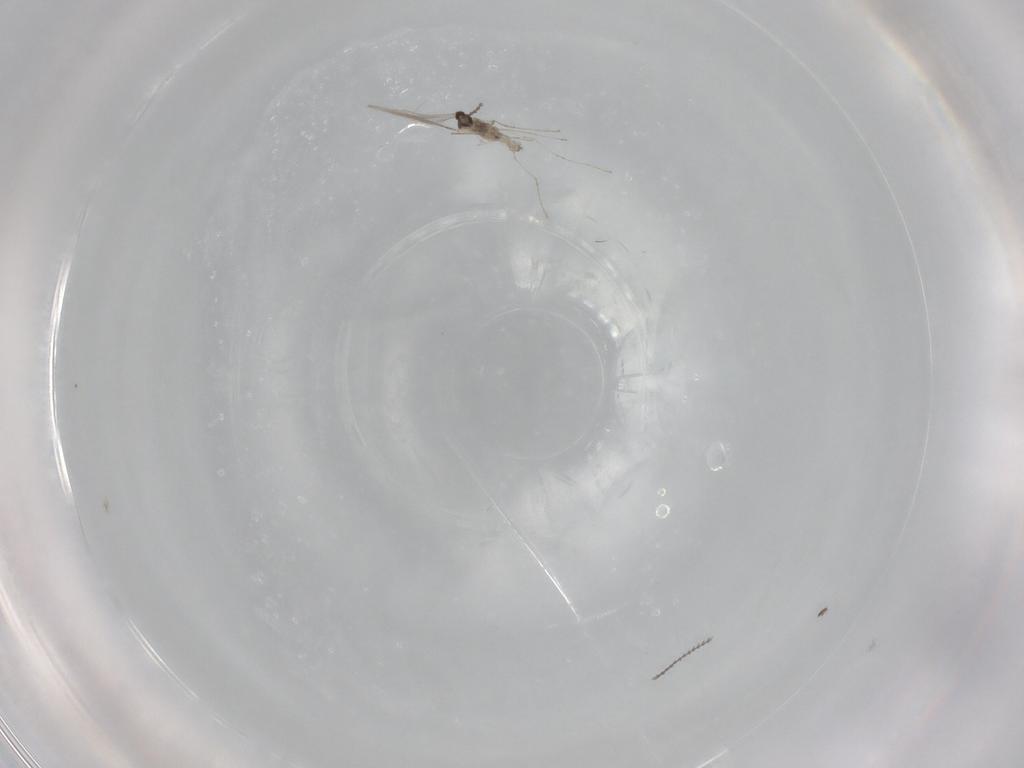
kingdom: Animalia
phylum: Arthropoda
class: Insecta
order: Diptera
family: Cecidomyiidae
